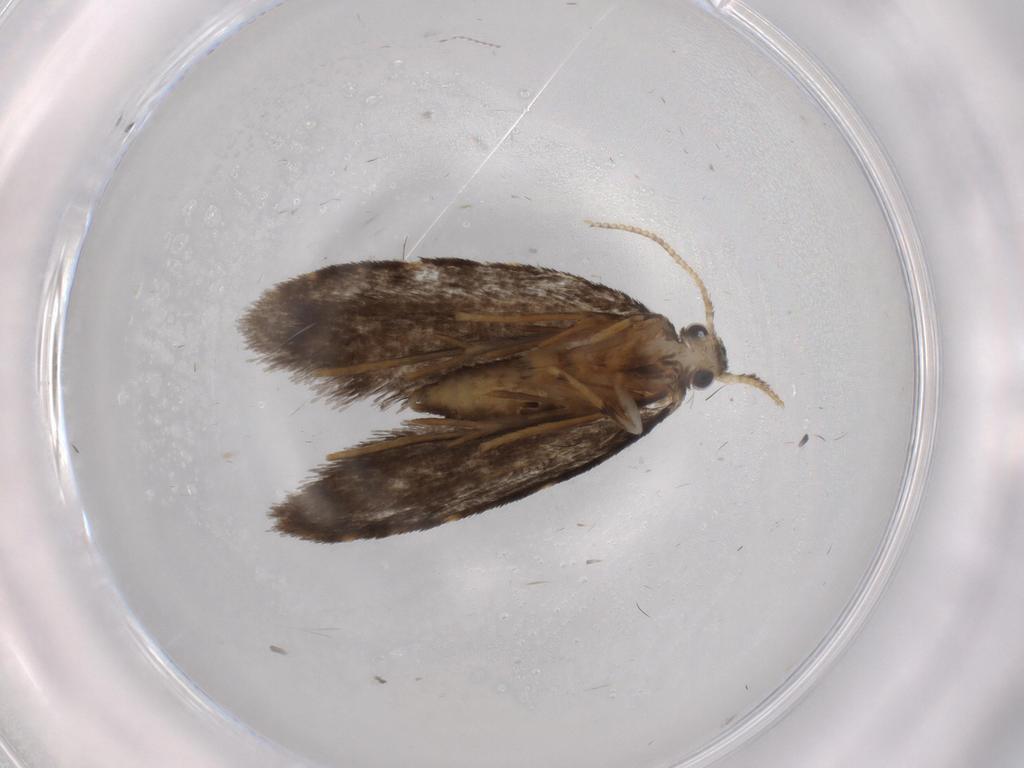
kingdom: Animalia
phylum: Arthropoda
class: Insecta
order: Lepidoptera
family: Psychidae
